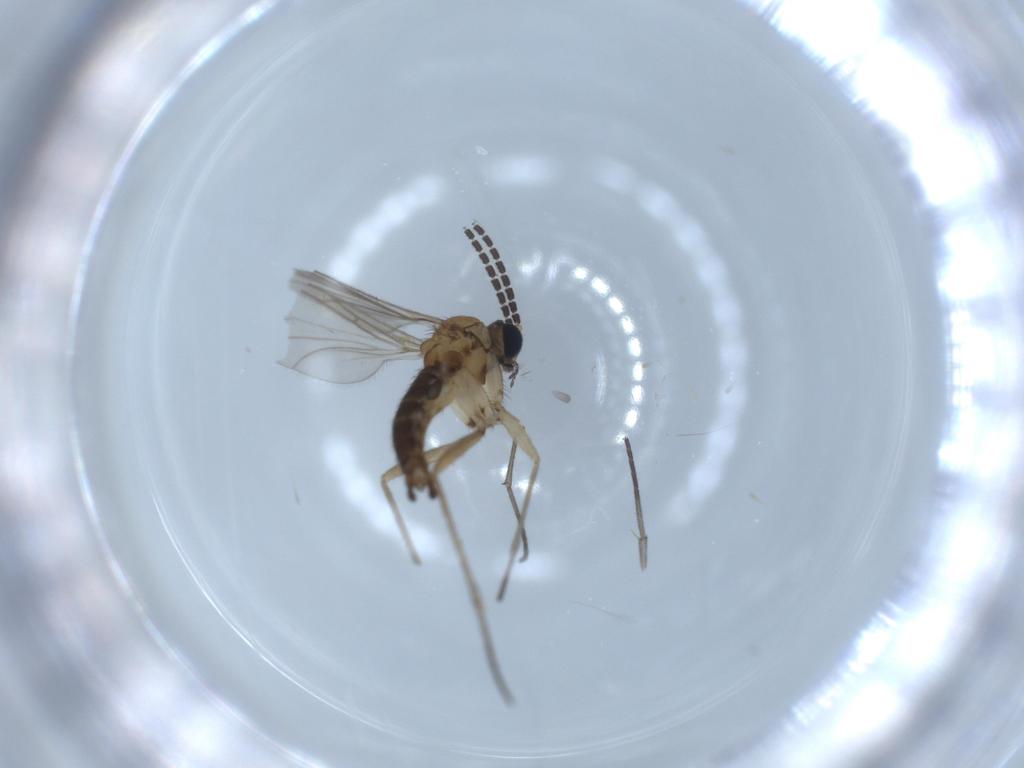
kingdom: Animalia
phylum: Arthropoda
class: Insecta
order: Diptera
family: Sciaridae
